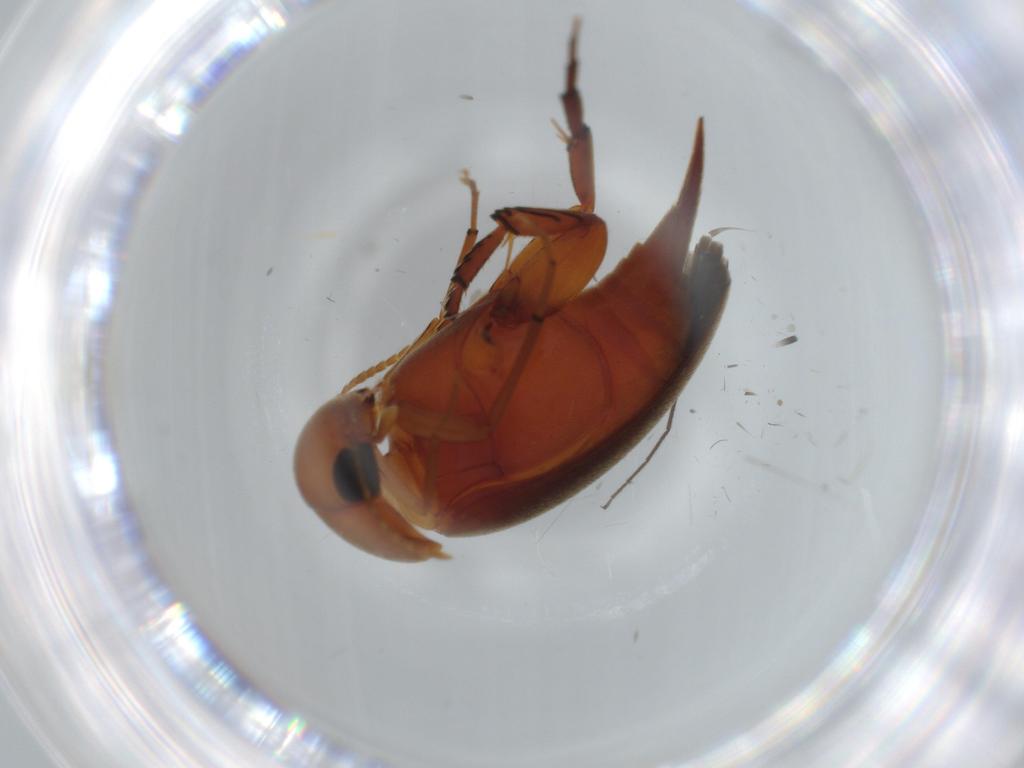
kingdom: Animalia
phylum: Arthropoda
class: Insecta
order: Coleoptera
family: Mordellidae
